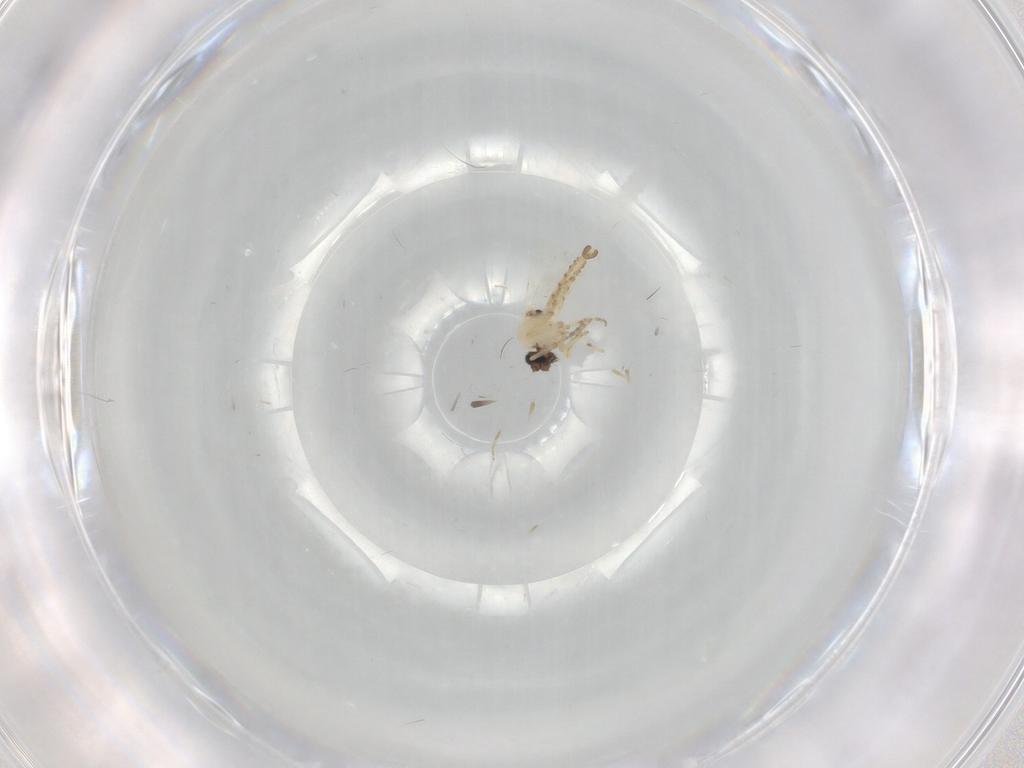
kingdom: Animalia
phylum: Arthropoda
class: Insecta
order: Diptera
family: Ceratopogonidae
